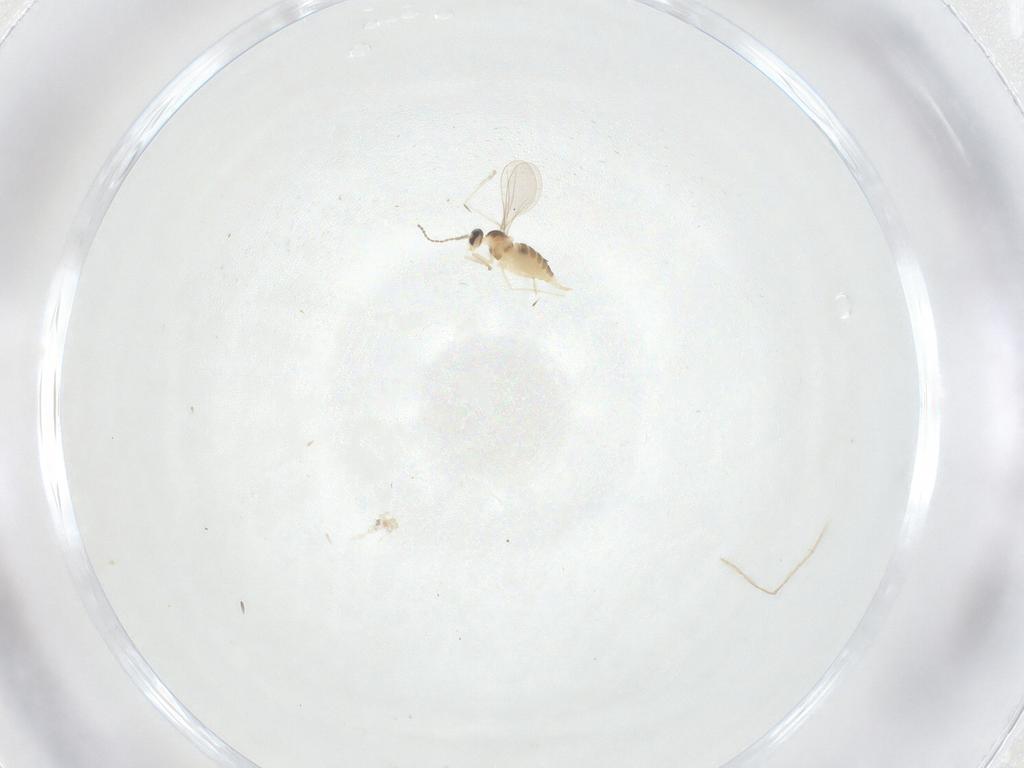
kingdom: Animalia
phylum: Arthropoda
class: Insecta
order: Diptera
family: Cecidomyiidae
